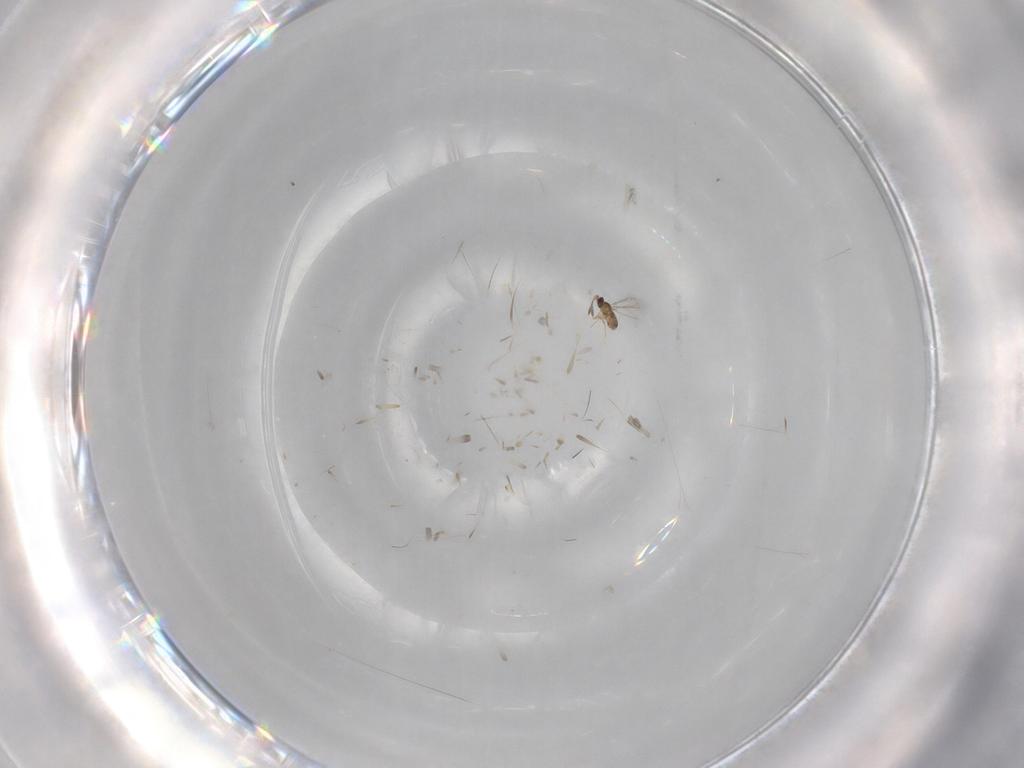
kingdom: Animalia
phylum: Arthropoda
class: Insecta
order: Hymenoptera
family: Mymaridae
